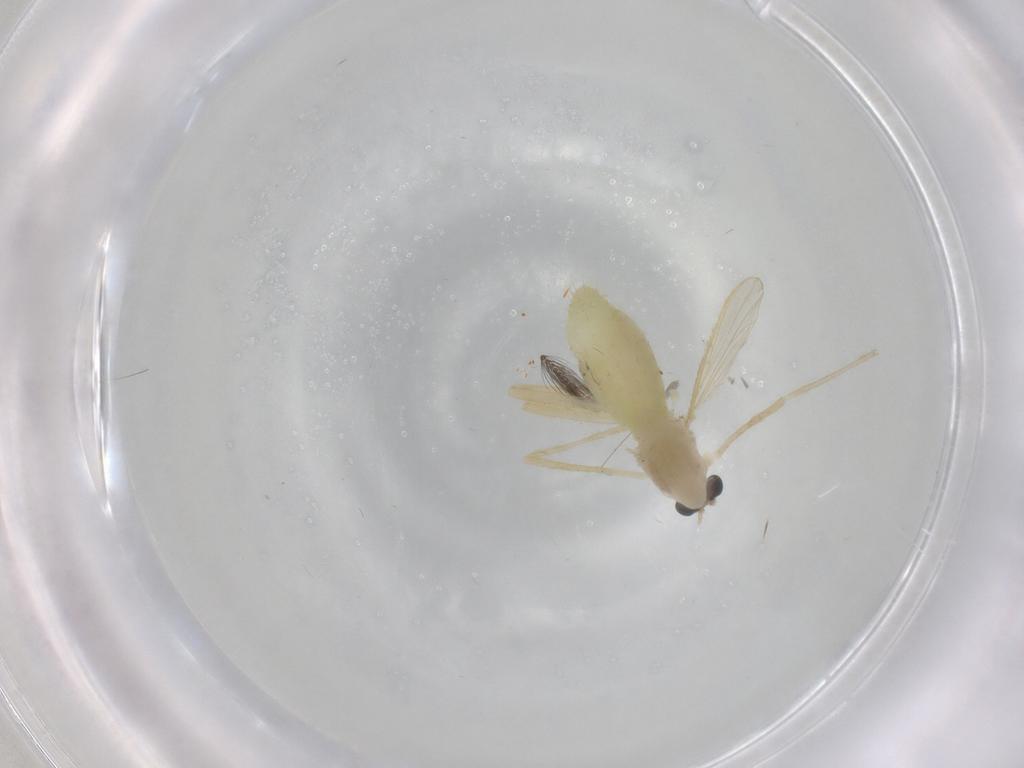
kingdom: Animalia
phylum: Arthropoda
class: Insecta
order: Diptera
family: Chironomidae
